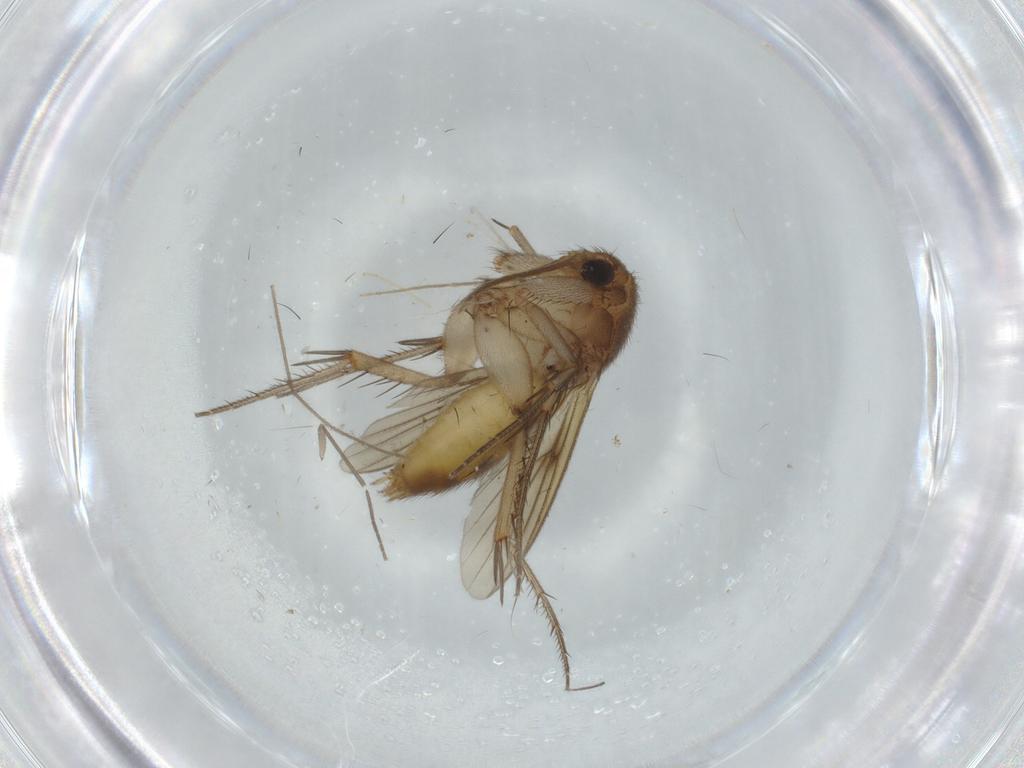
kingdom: Animalia
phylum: Arthropoda
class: Insecta
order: Diptera
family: Chironomidae
